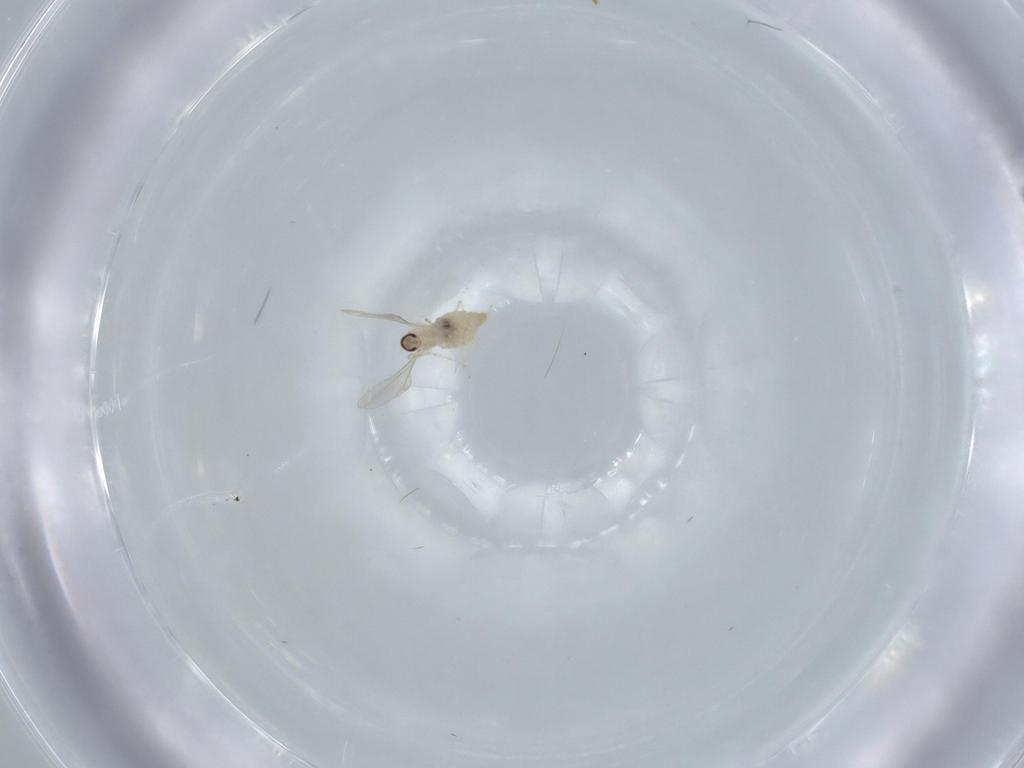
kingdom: Animalia
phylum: Arthropoda
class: Insecta
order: Diptera
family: Cecidomyiidae
